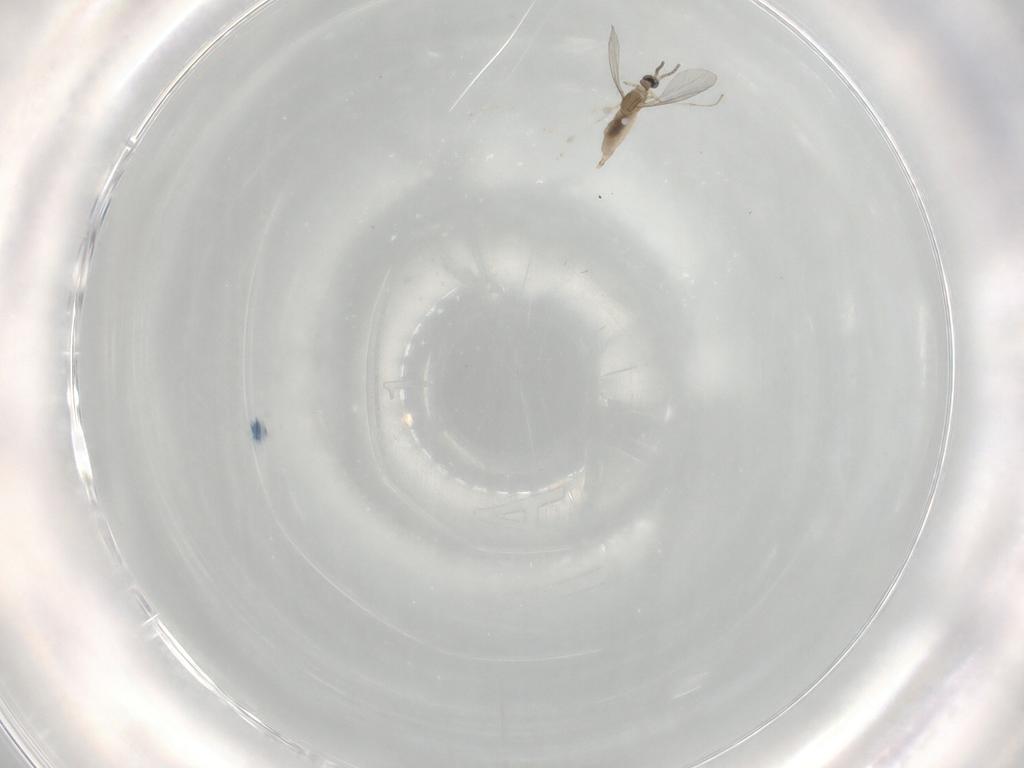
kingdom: Animalia
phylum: Arthropoda
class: Insecta
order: Diptera
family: Cecidomyiidae
